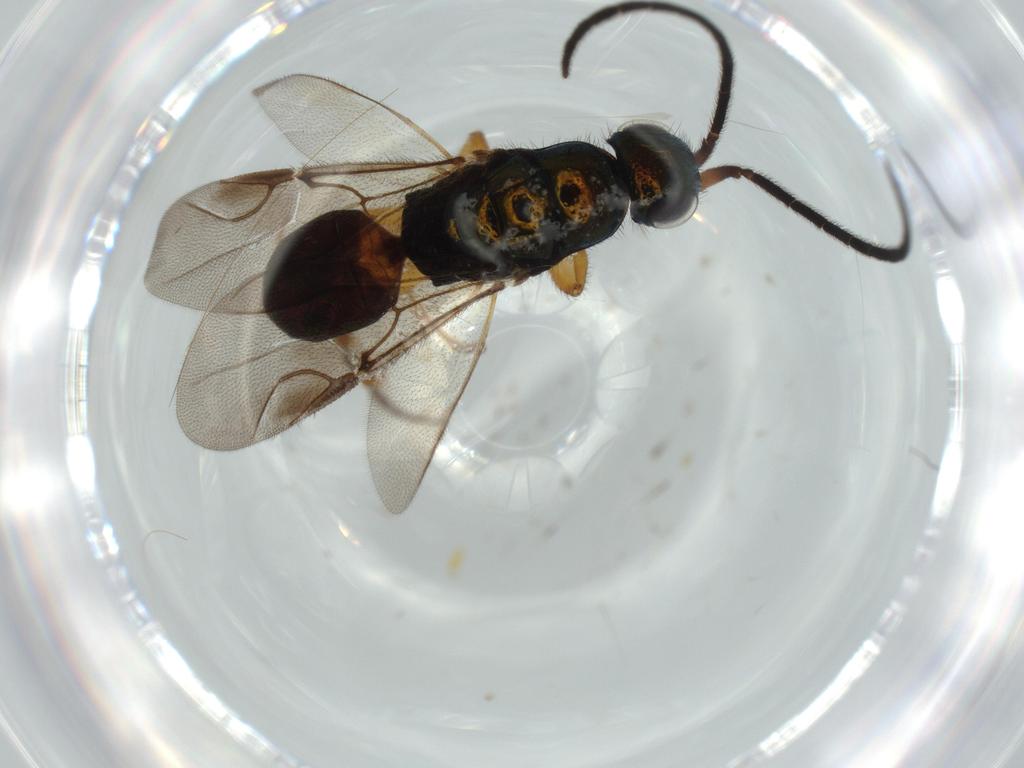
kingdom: Animalia
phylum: Arthropoda
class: Insecta
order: Hymenoptera
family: Chrysididae
